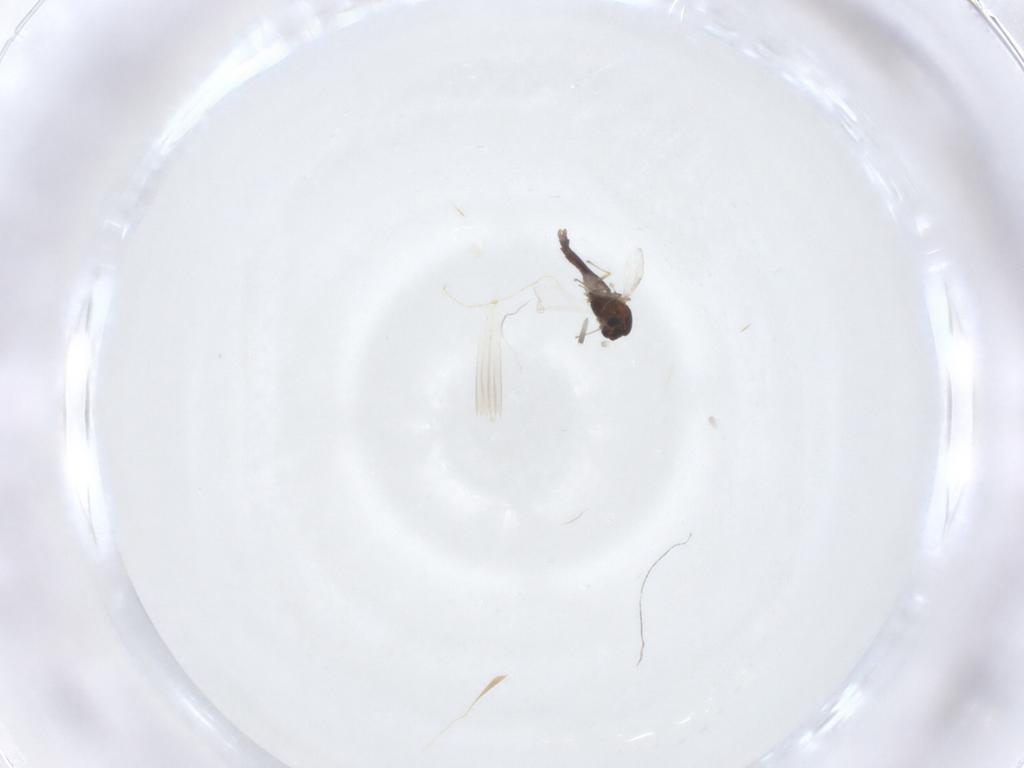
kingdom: Animalia
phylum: Arthropoda
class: Insecta
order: Diptera
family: Chironomidae
